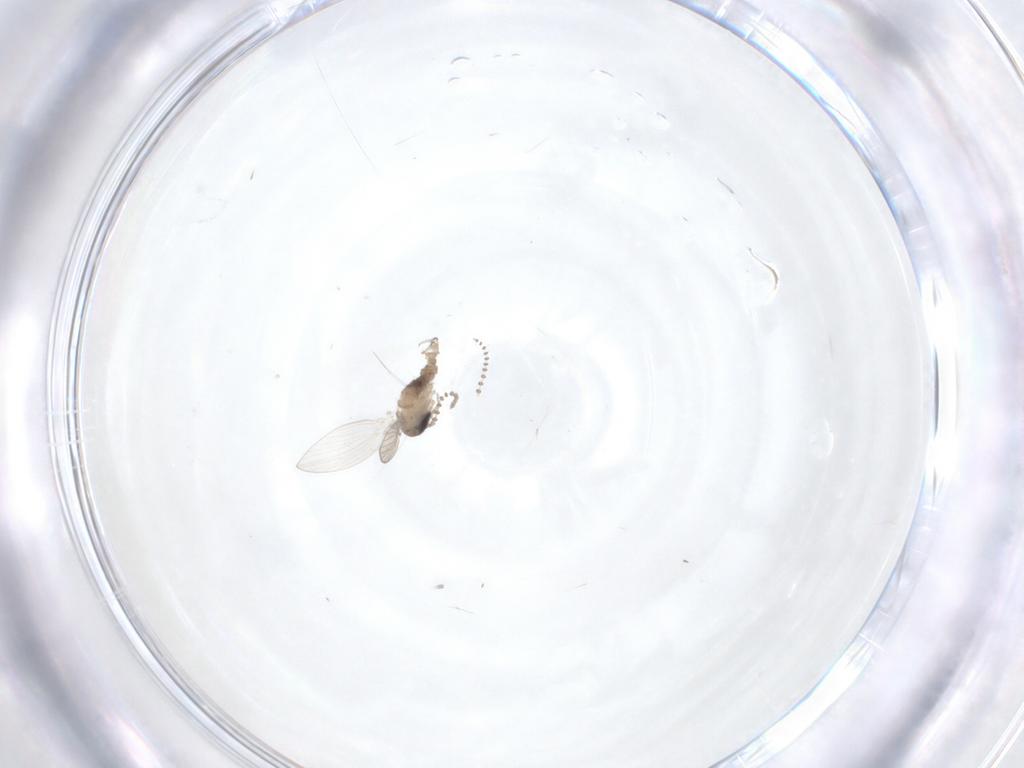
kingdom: Animalia
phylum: Arthropoda
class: Insecta
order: Diptera
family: Psychodidae
